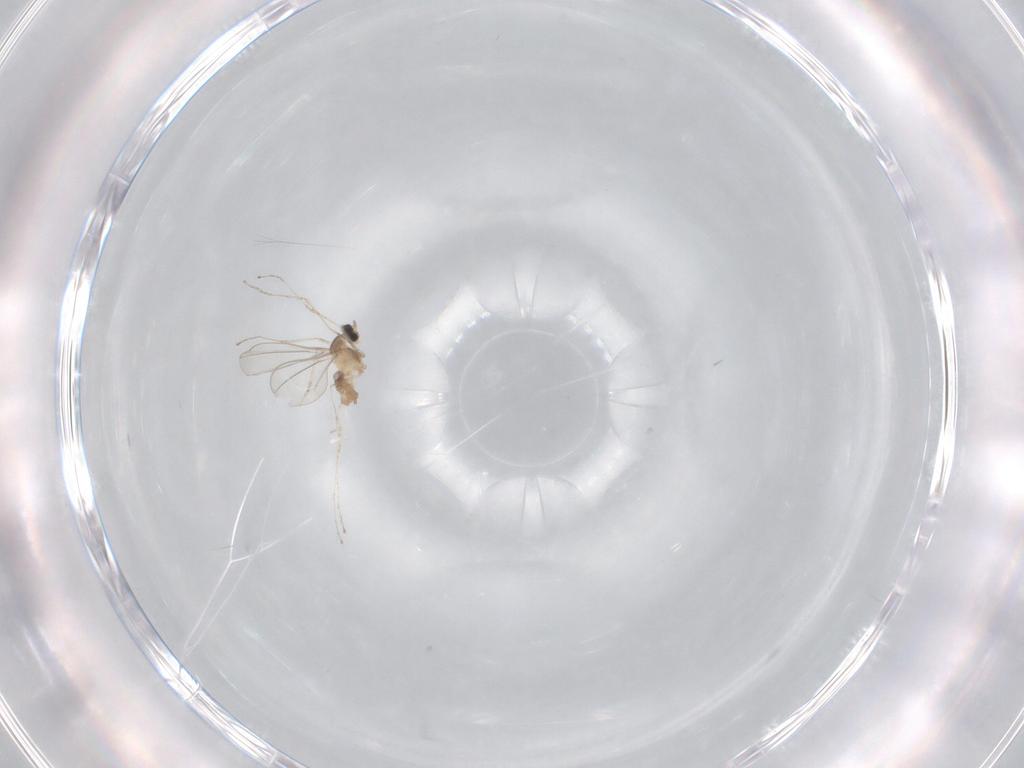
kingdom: Animalia
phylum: Arthropoda
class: Insecta
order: Diptera
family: Cecidomyiidae
